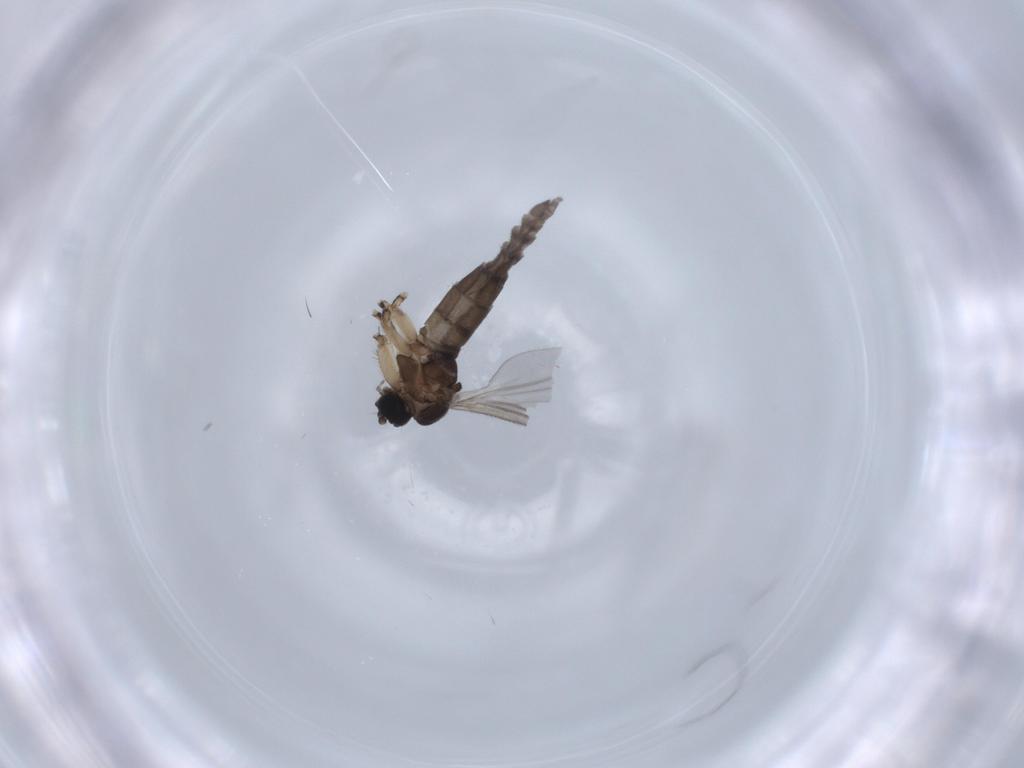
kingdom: Animalia
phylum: Arthropoda
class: Insecta
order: Diptera
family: Sciaridae
